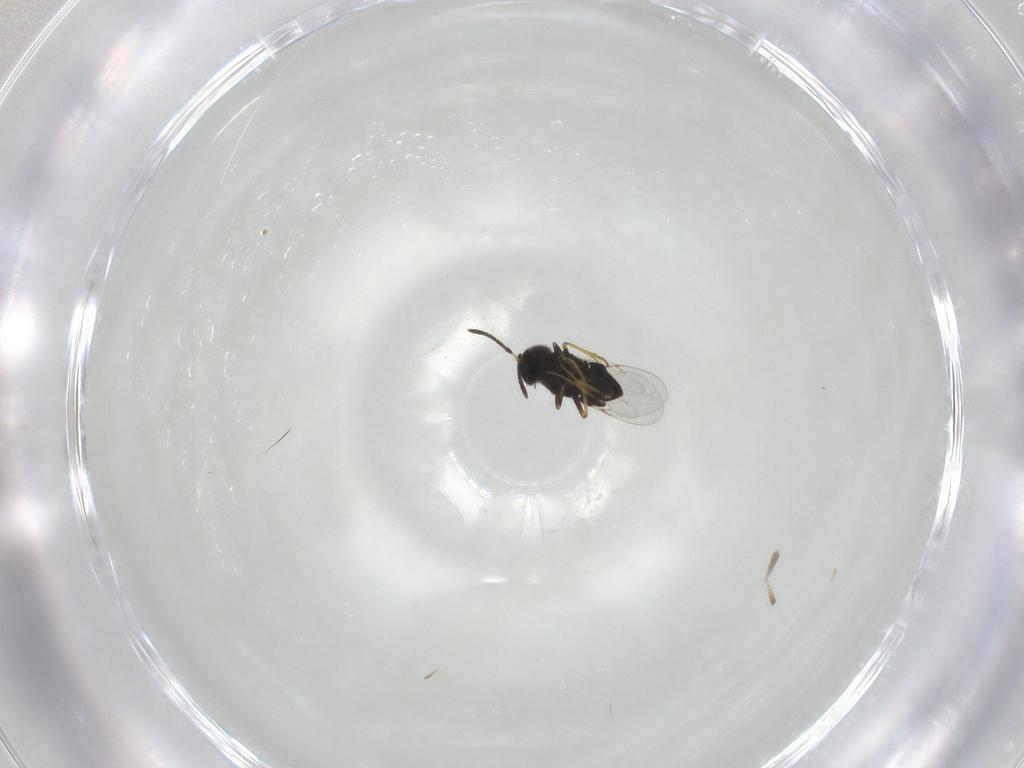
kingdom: Animalia
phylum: Arthropoda
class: Insecta
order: Hymenoptera
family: Encyrtidae
